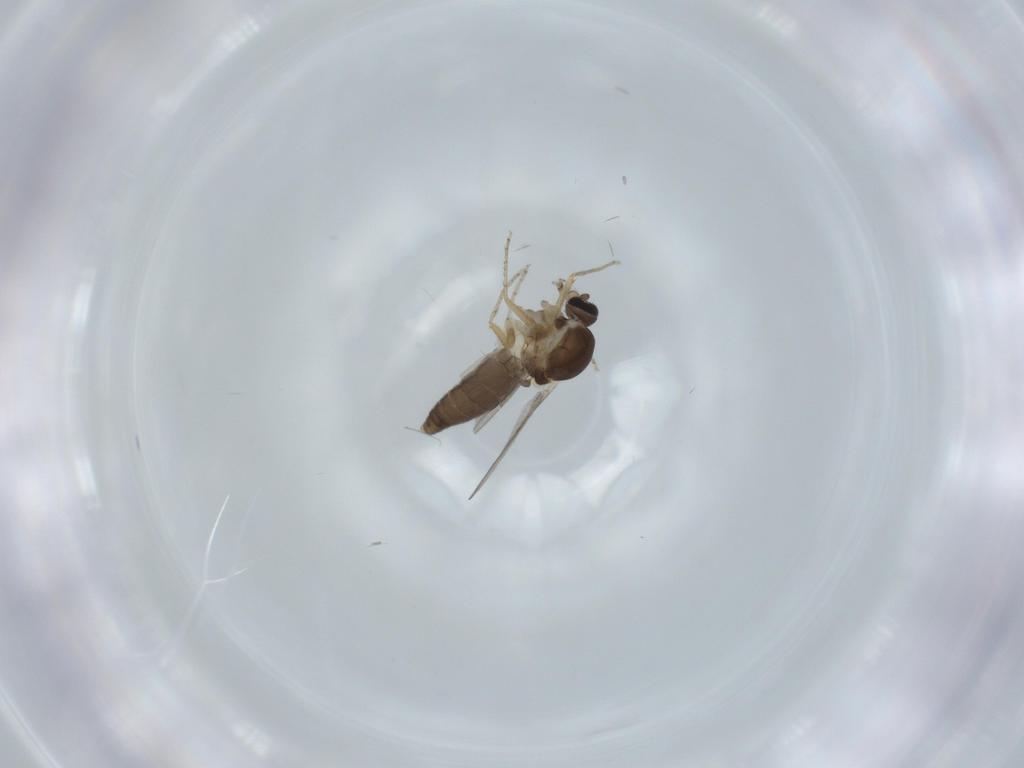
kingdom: Animalia
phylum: Arthropoda
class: Insecta
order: Diptera
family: Ceratopogonidae
